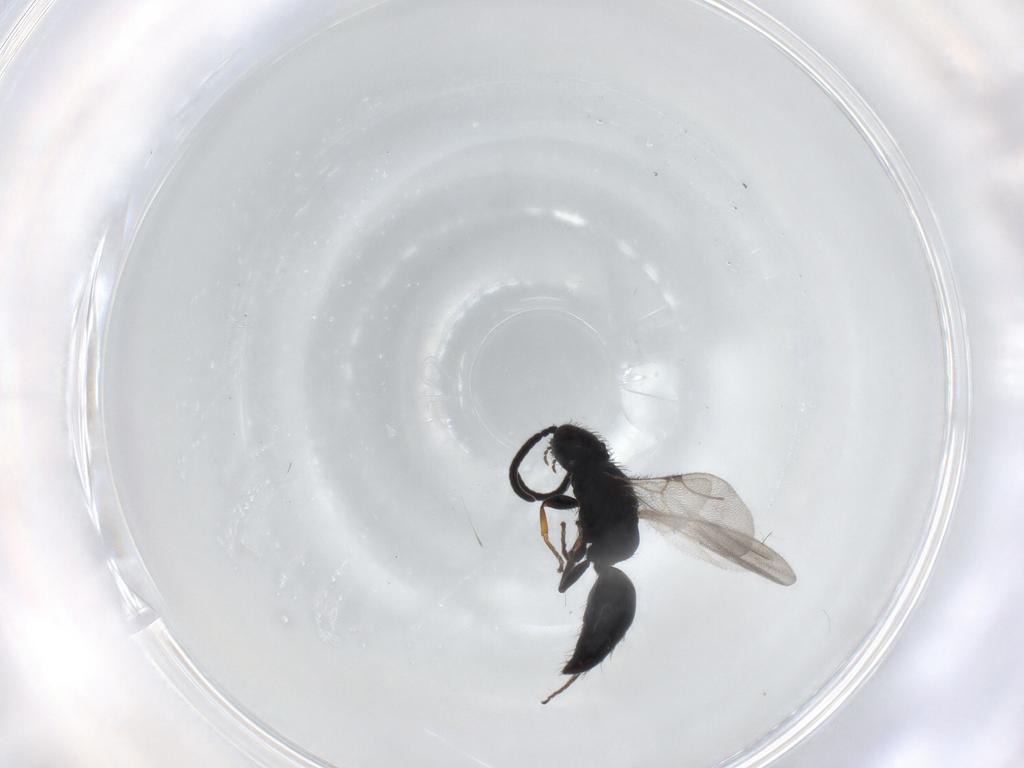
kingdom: Animalia
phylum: Arthropoda
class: Insecta
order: Hymenoptera
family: Bethylidae
